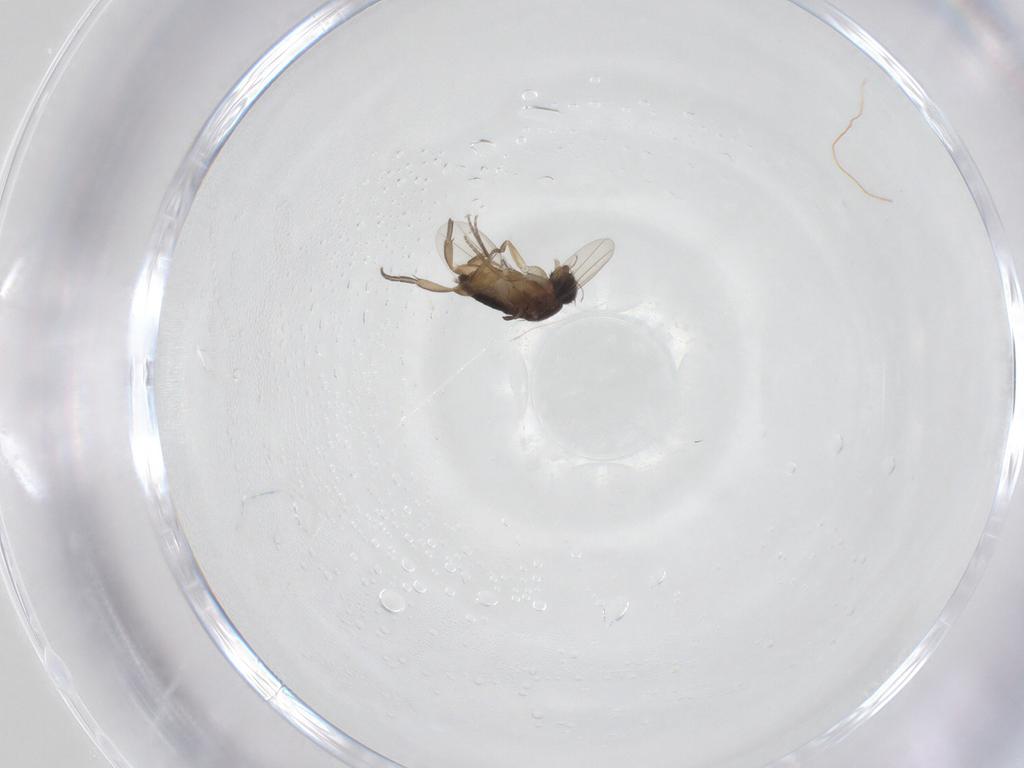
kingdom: Animalia
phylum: Arthropoda
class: Insecta
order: Diptera
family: Phoridae
